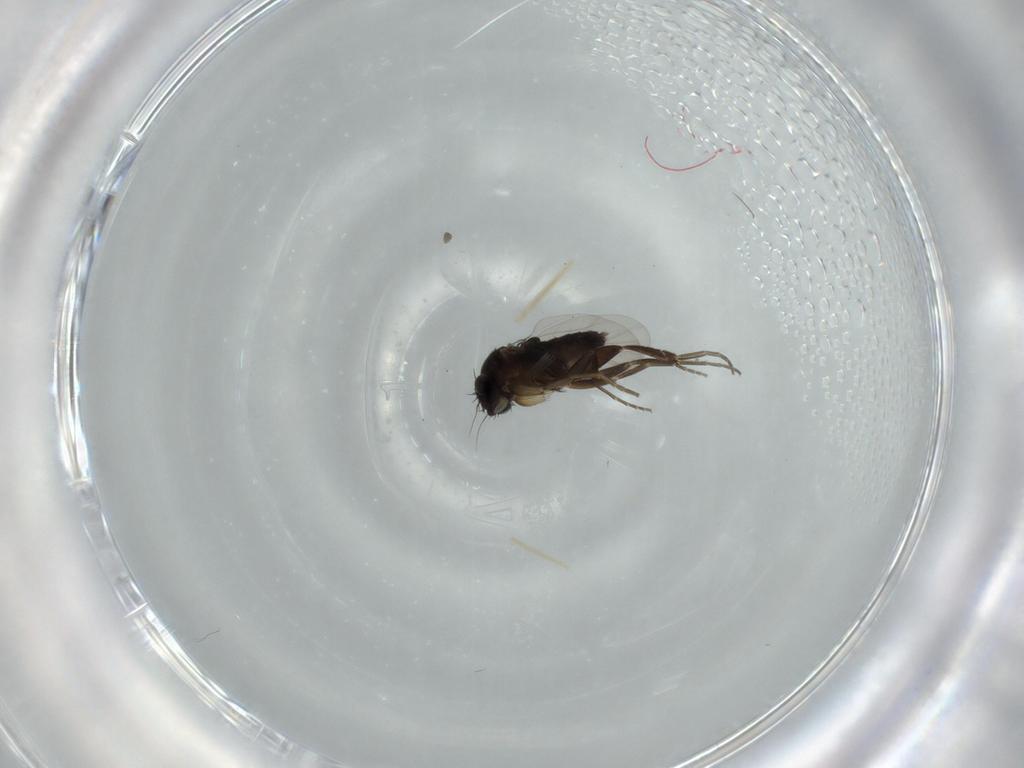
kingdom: Animalia
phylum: Arthropoda
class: Insecta
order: Diptera
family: Phoridae
